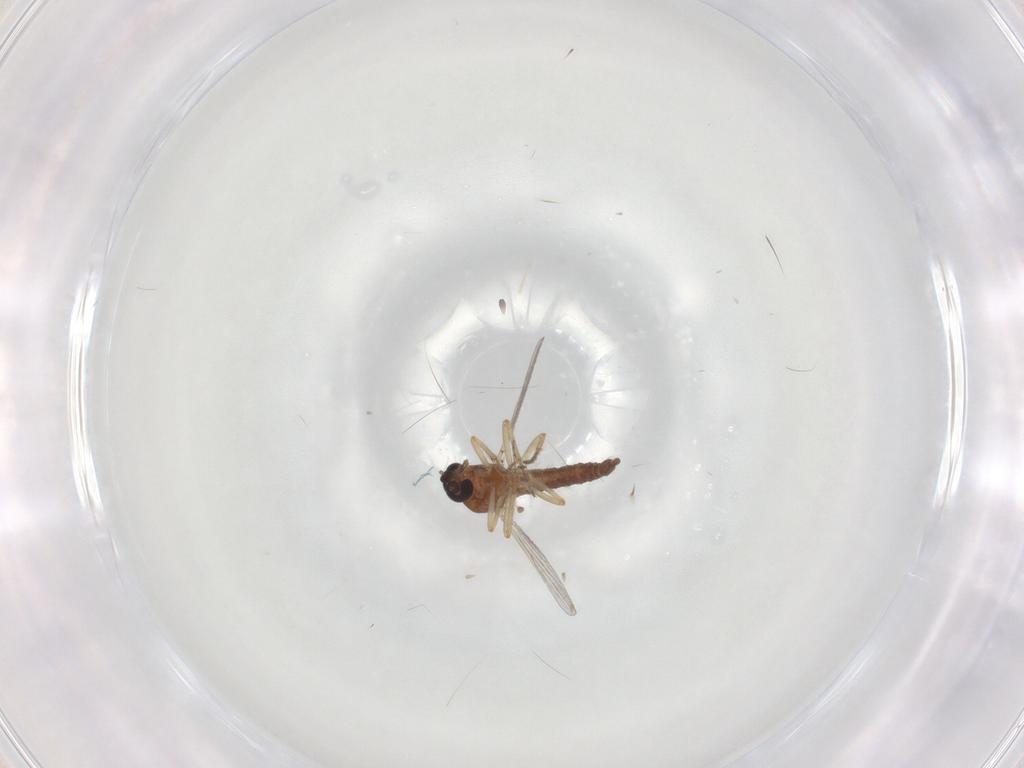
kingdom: Animalia
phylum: Arthropoda
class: Insecta
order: Diptera
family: Ceratopogonidae
